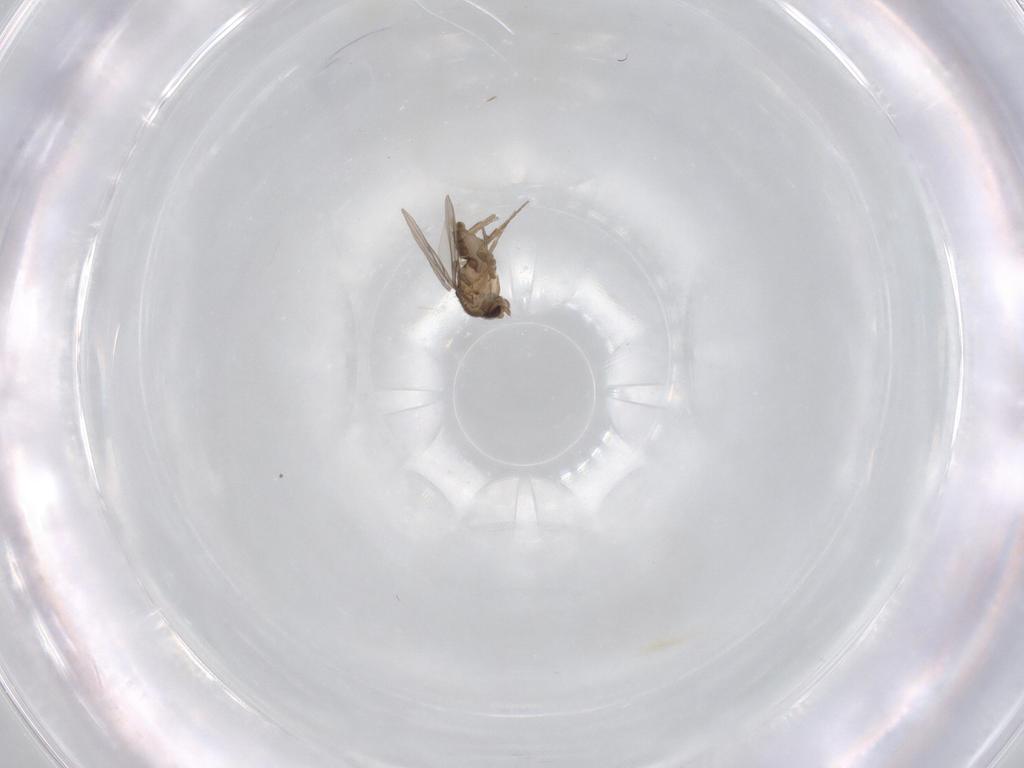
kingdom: Animalia
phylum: Arthropoda
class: Insecta
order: Diptera
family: Phoridae
